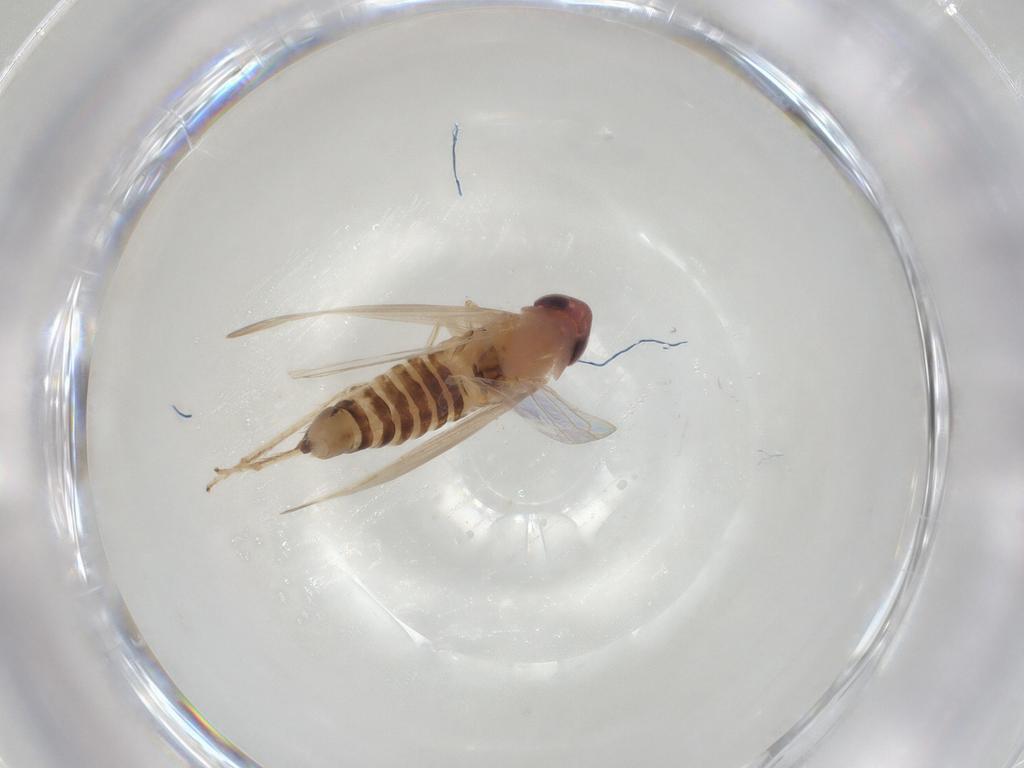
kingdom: Animalia
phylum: Arthropoda
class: Insecta
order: Hemiptera
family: Cicadellidae
